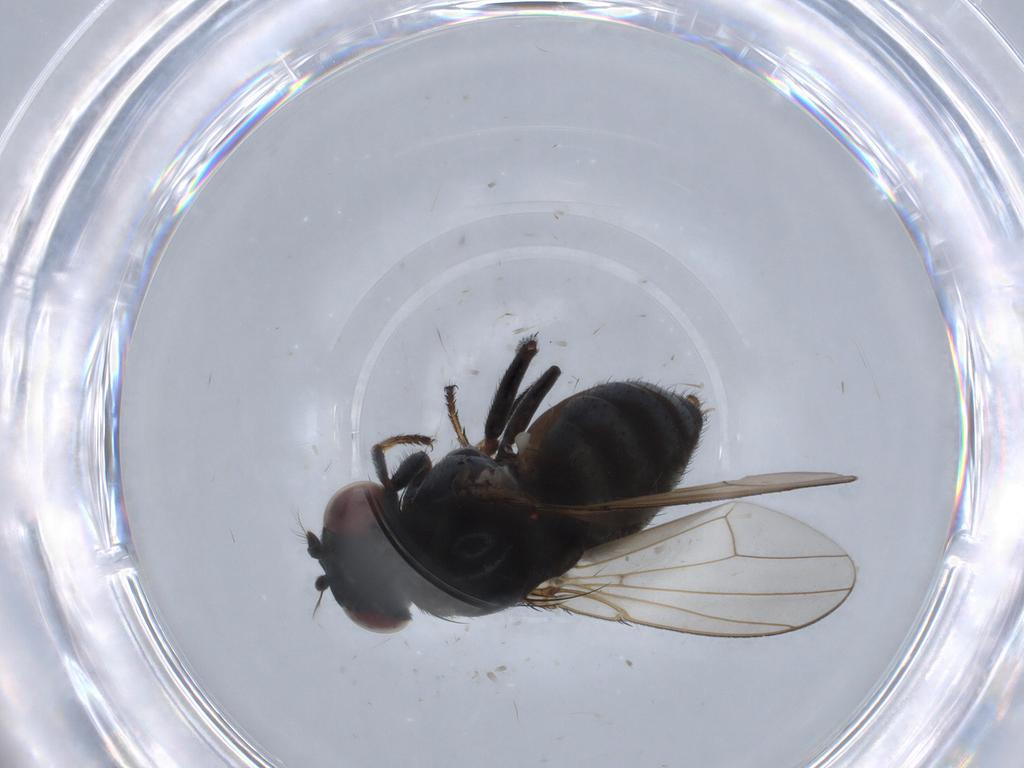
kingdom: Animalia
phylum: Arthropoda
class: Insecta
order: Diptera
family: Ephydridae
